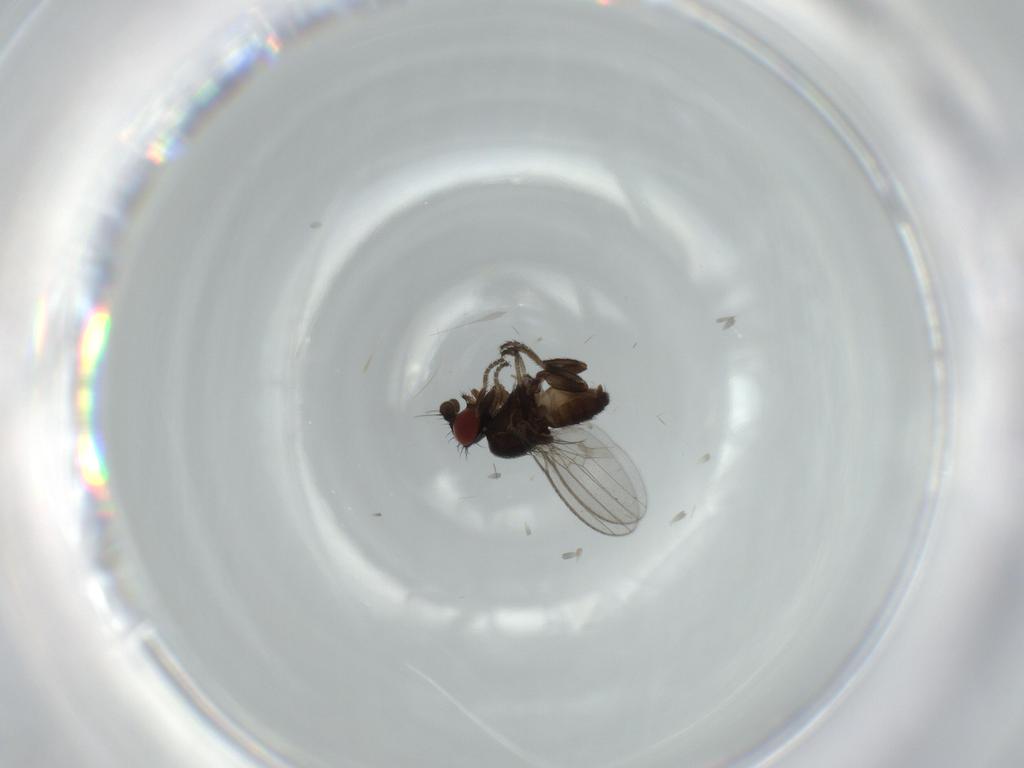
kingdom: Animalia
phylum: Arthropoda
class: Insecta
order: Diptera
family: Milichiidae
